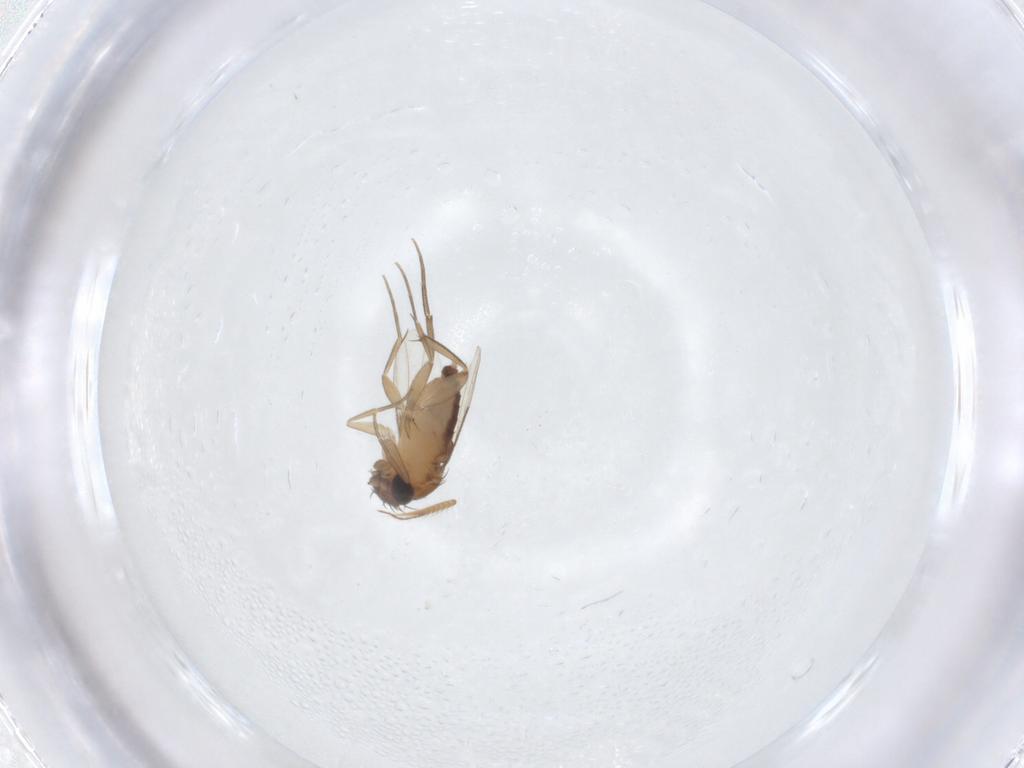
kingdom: Animalia
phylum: Arthropoda
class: Insecta
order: Diptera
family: Phoridae
